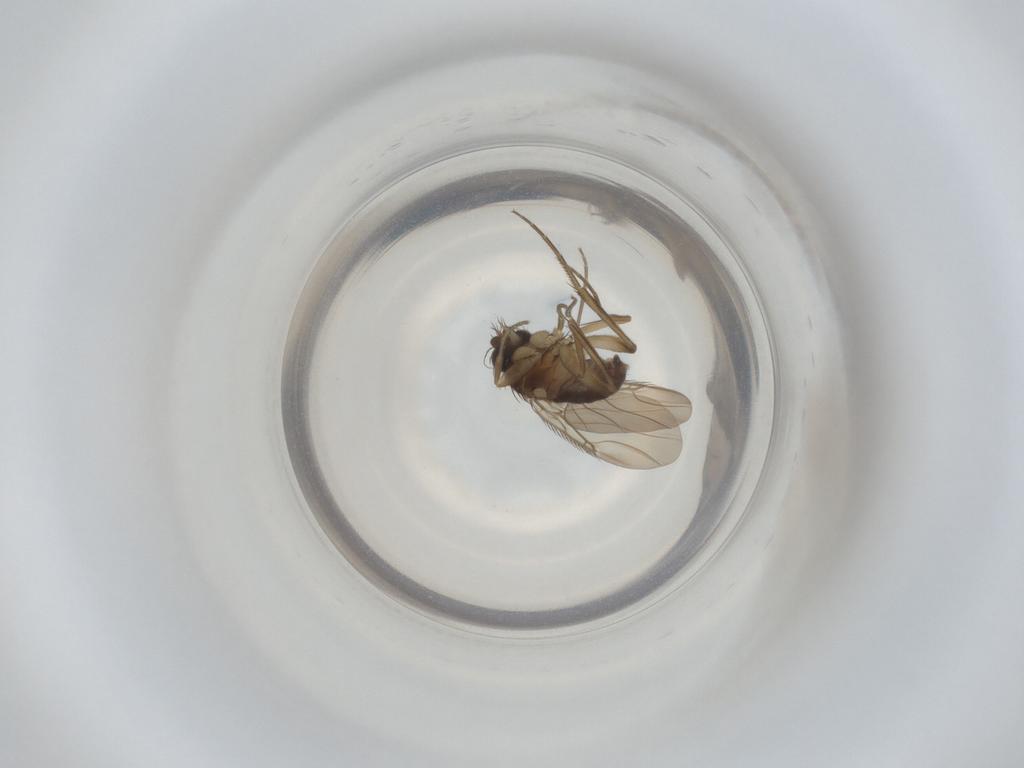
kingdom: Animalia
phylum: Arthropoda
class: Insecta
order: Diptera
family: Phoridae
